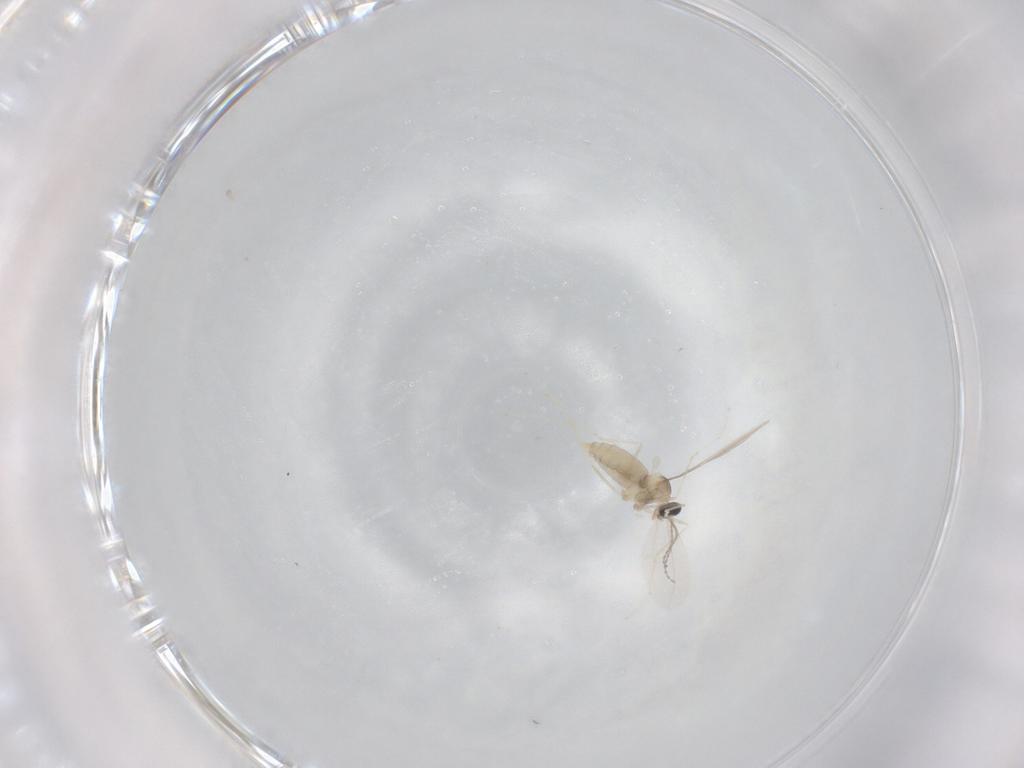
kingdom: Animalia
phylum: Arthropoda
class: Insecta
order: Diptera
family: Cecidomyiidae
